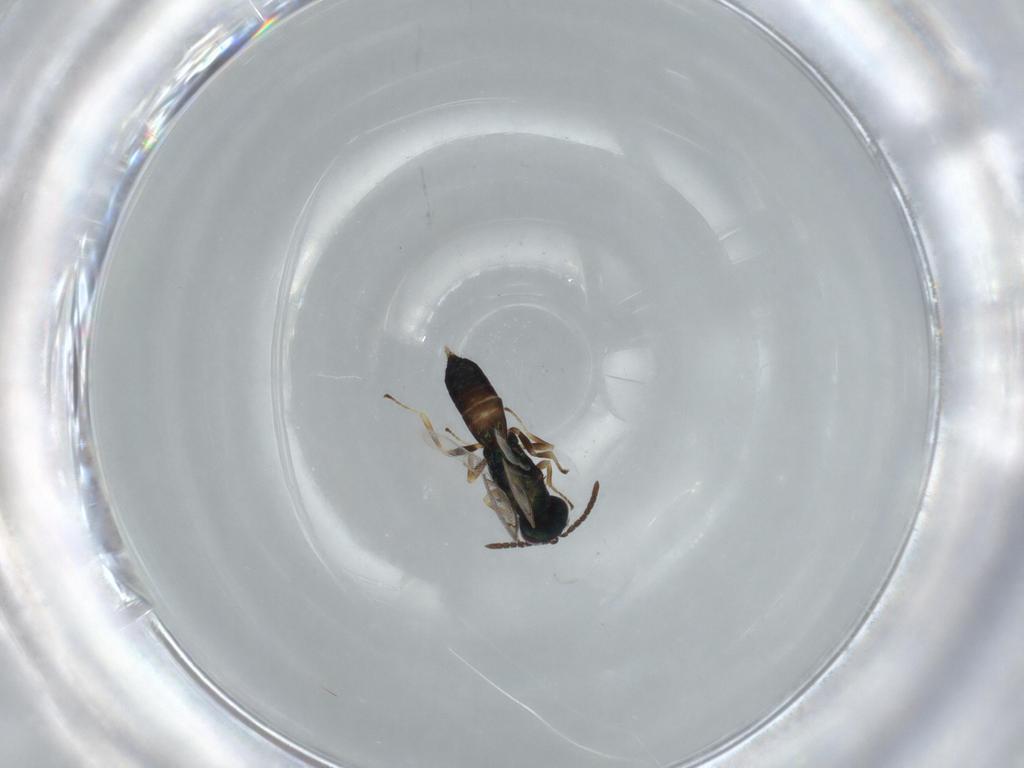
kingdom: Animalia
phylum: Arthropoda
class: Insecta
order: Hymenoptera
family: Pteromalidae
